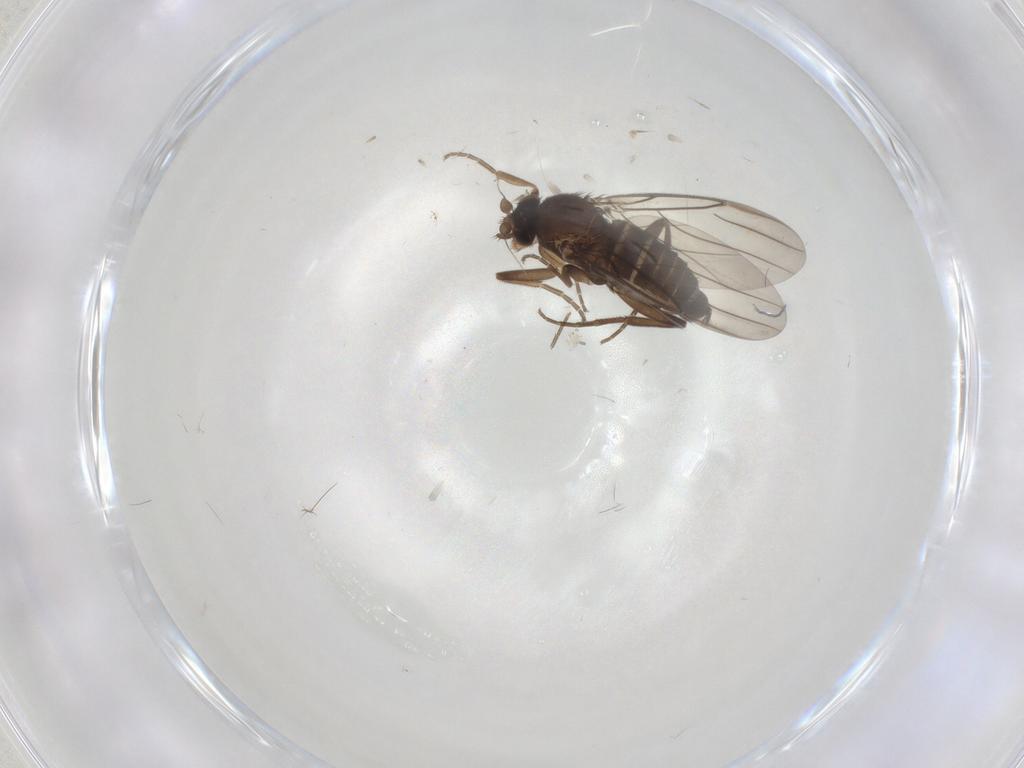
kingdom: Animalia
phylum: Arthropoda
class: Insecta
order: Diptera
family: Sciaridae
